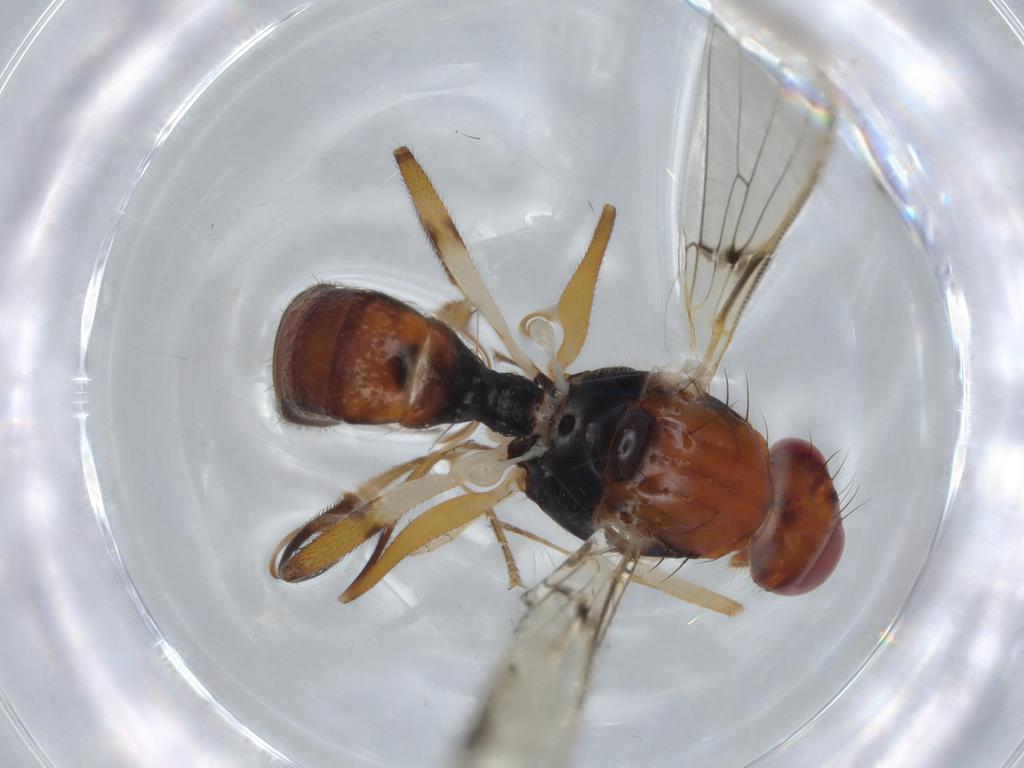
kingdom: Animalia
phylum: Arthropoda
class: Insecta
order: Diptera
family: Richardiidae
